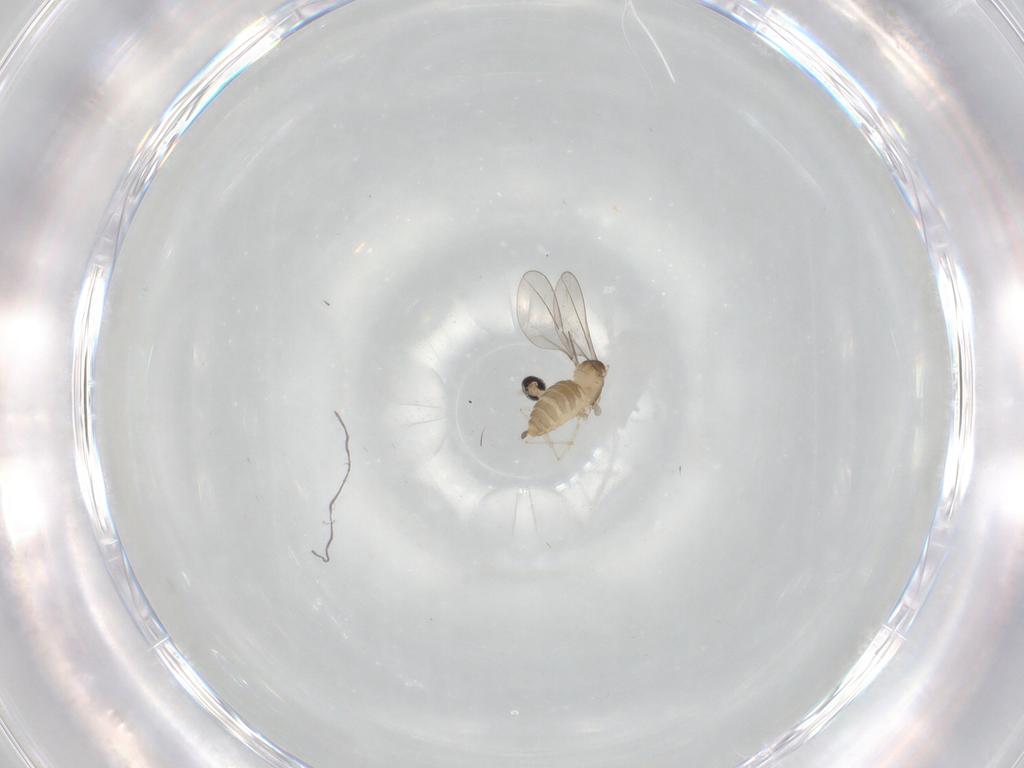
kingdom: Animalia
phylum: Arthropoda
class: Insecta
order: Diptera
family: Cecidomyiidae
